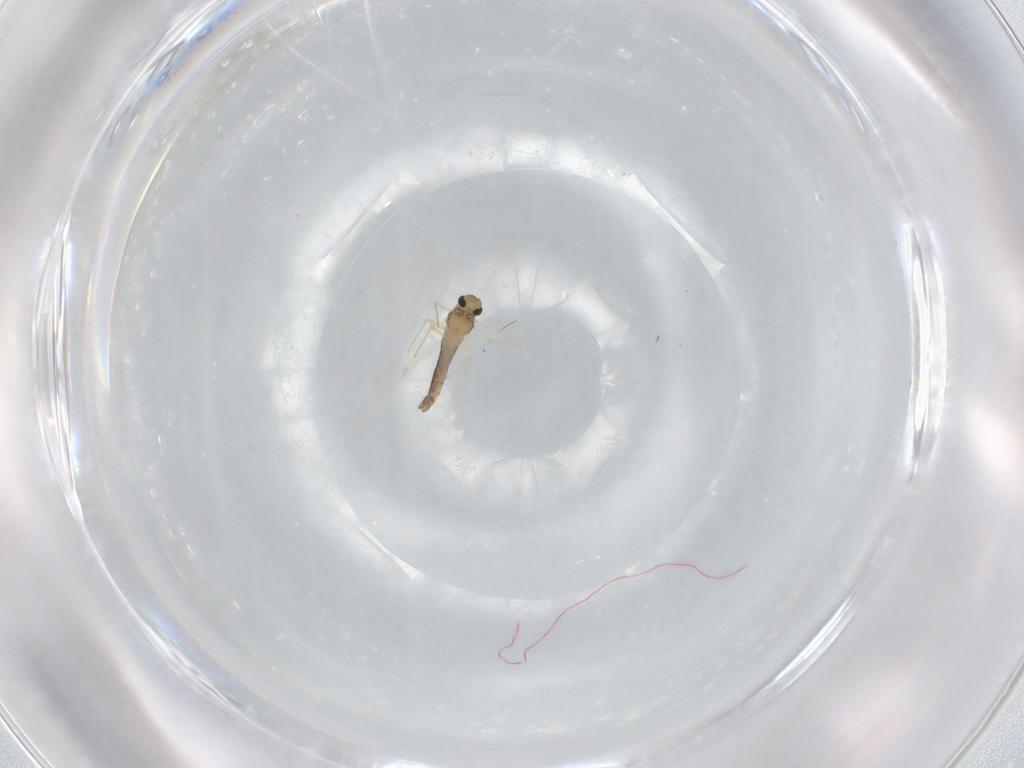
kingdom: Animalia
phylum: Arthropoda
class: Insecta
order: Diptera
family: Chironomidae
